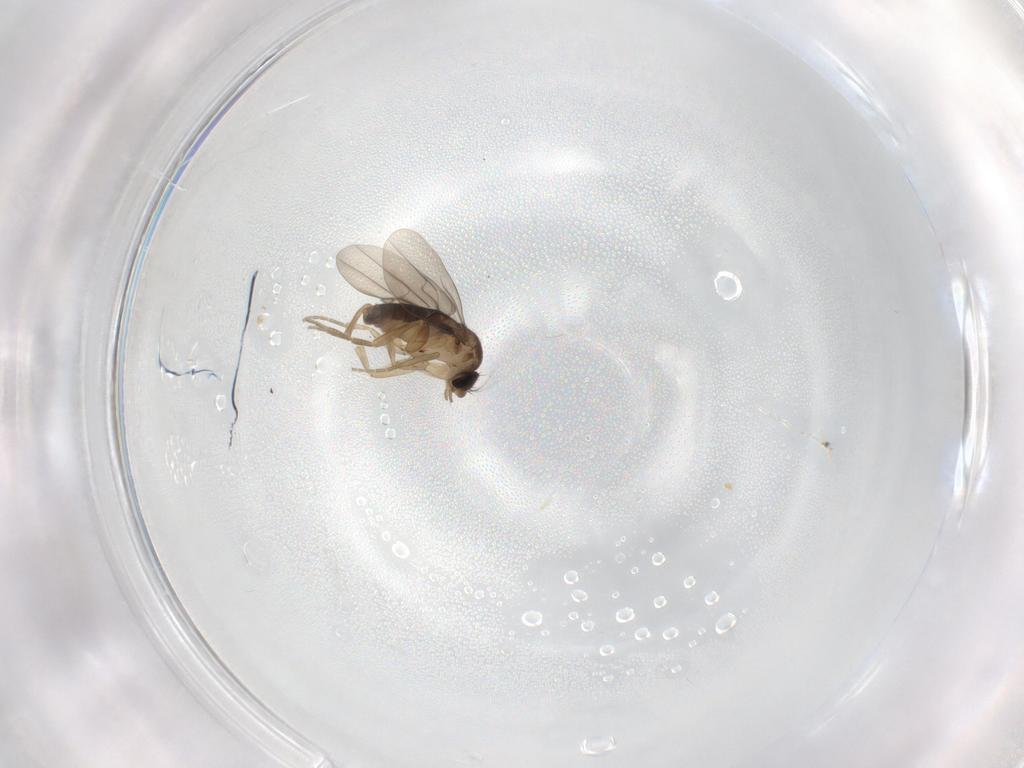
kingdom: Animalia
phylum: Arthropoda
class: Insecta
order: Diptera
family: Phoridae
